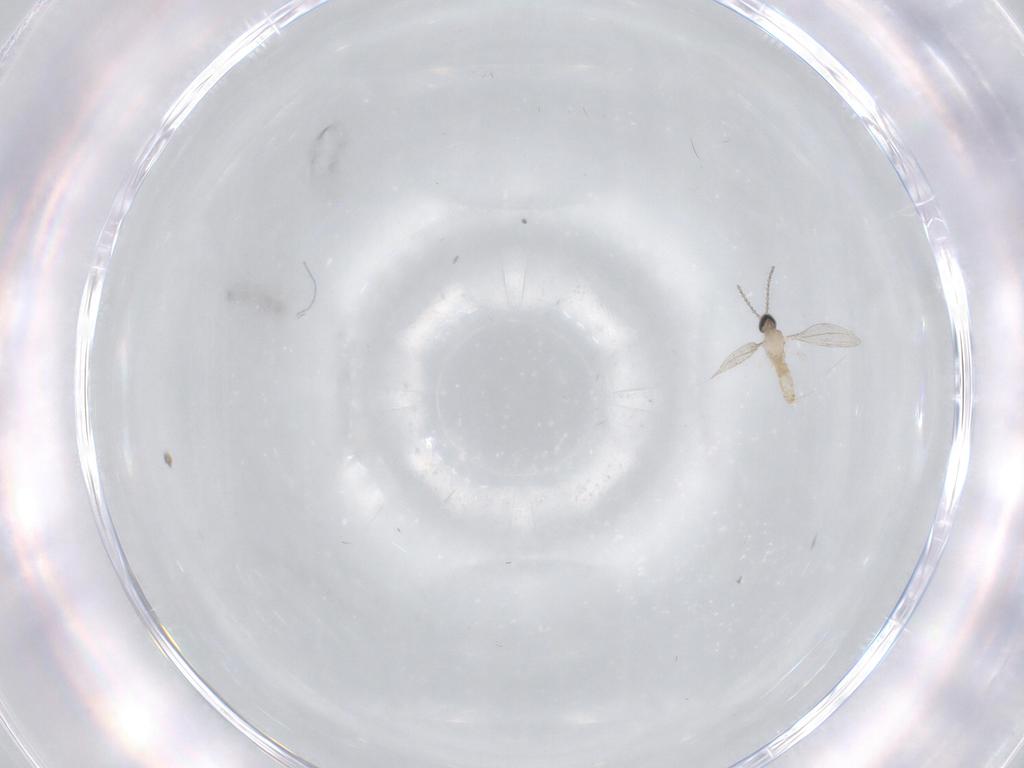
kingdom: Animalia
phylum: Arthropoda
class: Insecta
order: Diptera
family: Cecidomyiidae
